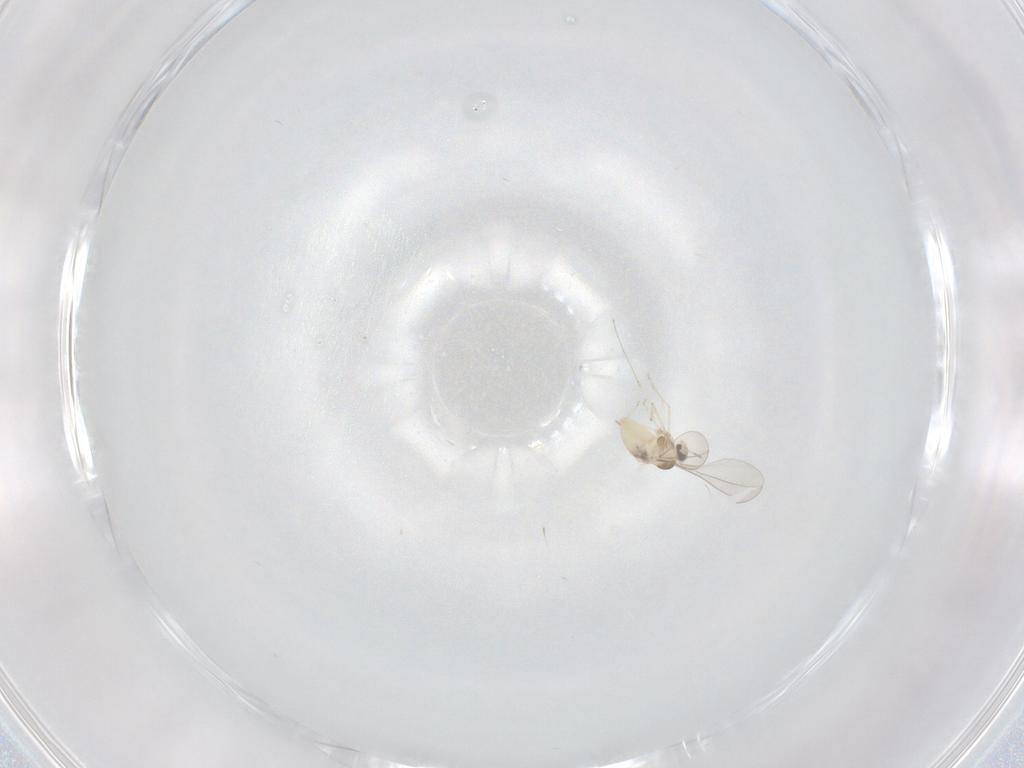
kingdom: Animalia
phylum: Arthropoda
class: Insecta
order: Diptera
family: Cecidomyiidae
